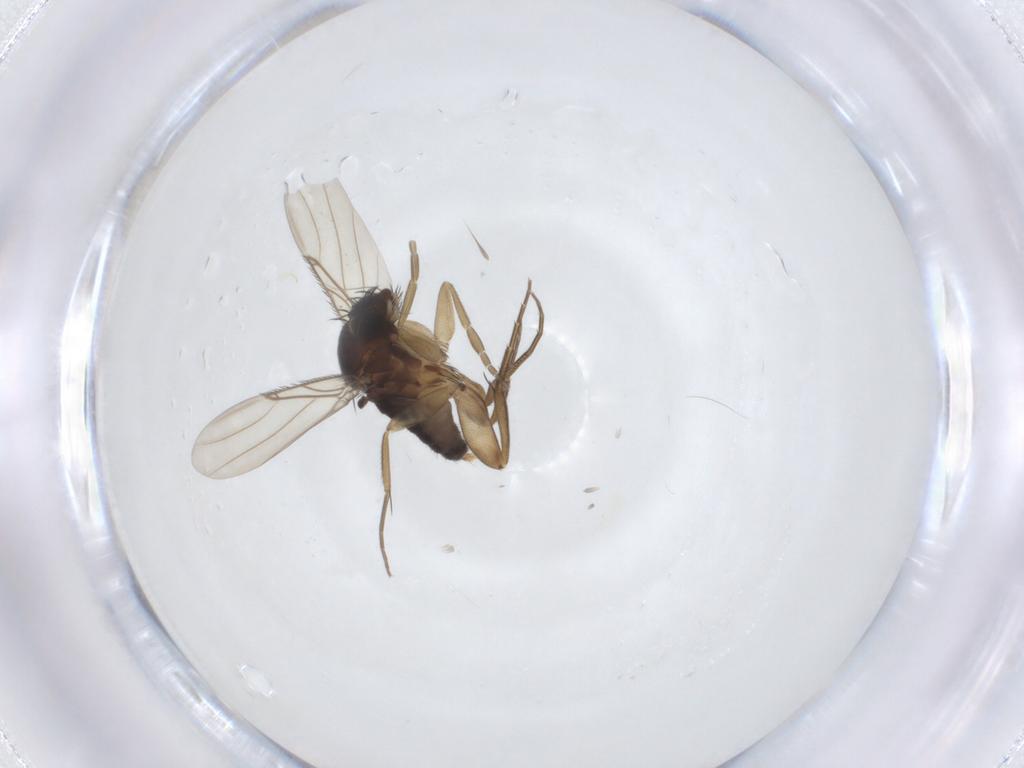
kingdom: Animalia
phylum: Arthropoda
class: Insecta
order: Diptera
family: Phoridae
